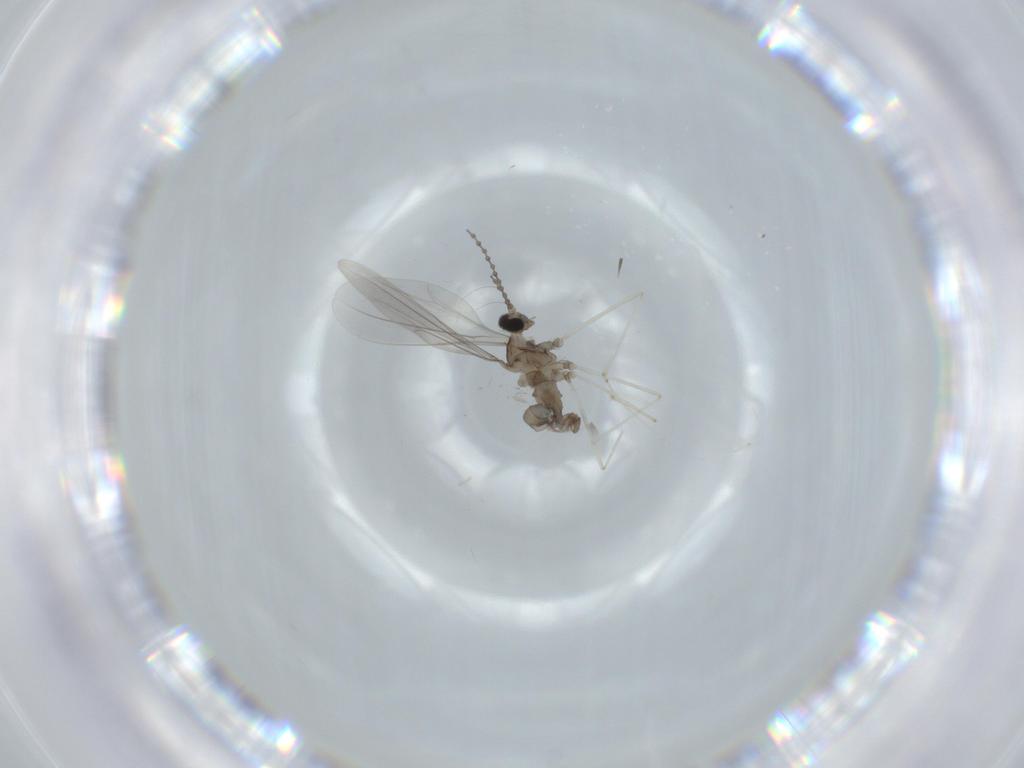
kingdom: Animalia
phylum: Arthropoda
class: Insecta
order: Diptera
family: Cecidomyiidae
